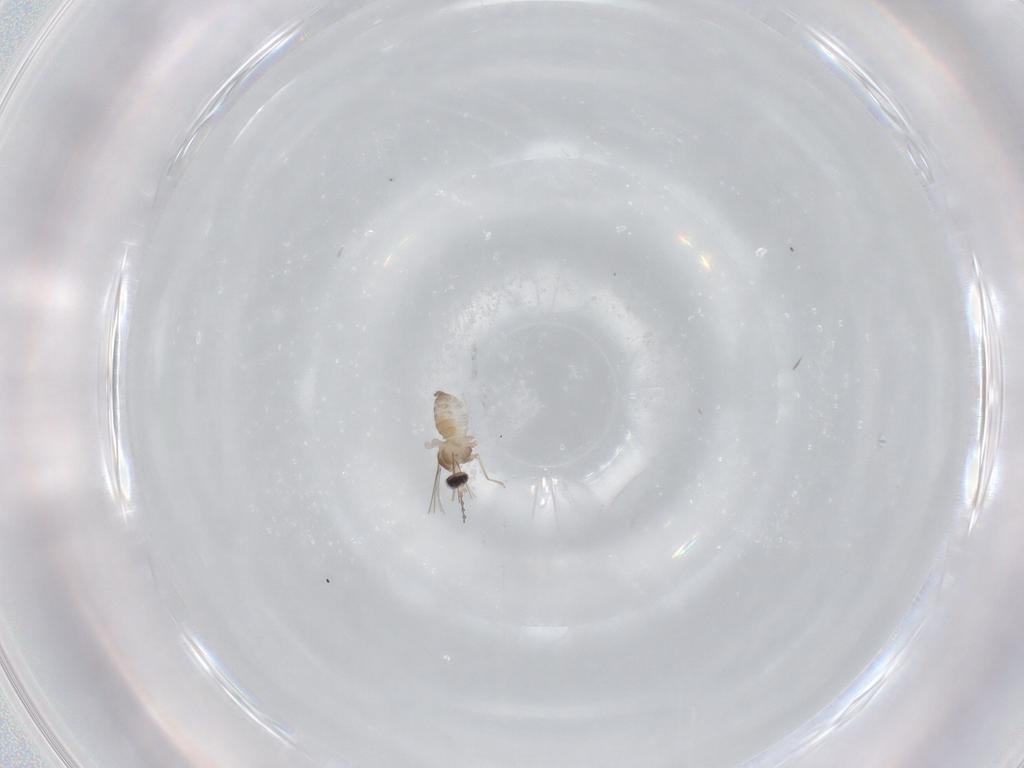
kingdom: Animalia
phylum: Arthropoda
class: Insecta
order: Diptera
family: Cecidomyiidae
